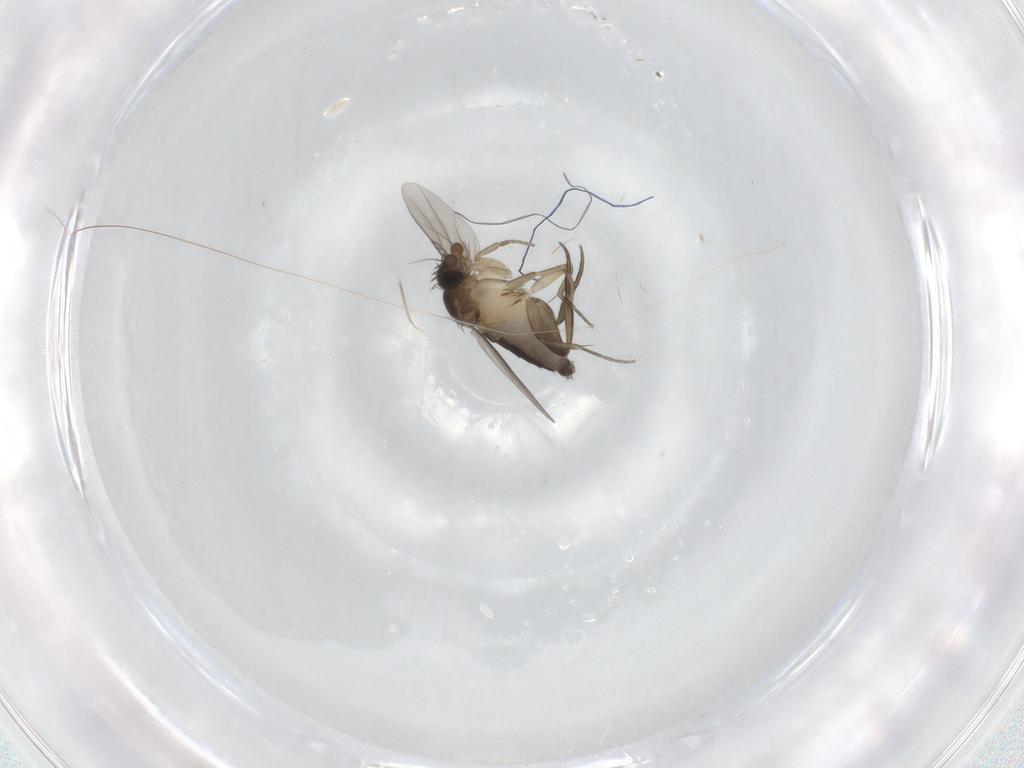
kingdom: Animalia
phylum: Arthropoda
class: Insecta
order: Diptera
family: Phoridae
